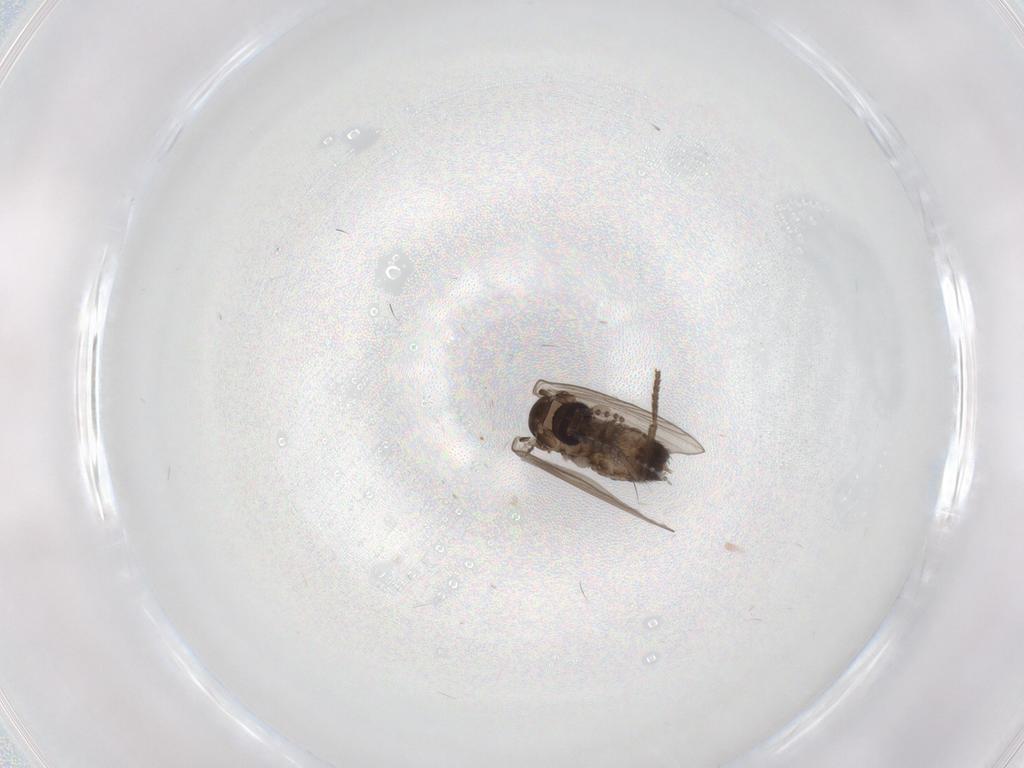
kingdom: Animalia
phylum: Arthropoda
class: Insecta
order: Diptera
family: Psychodidae
